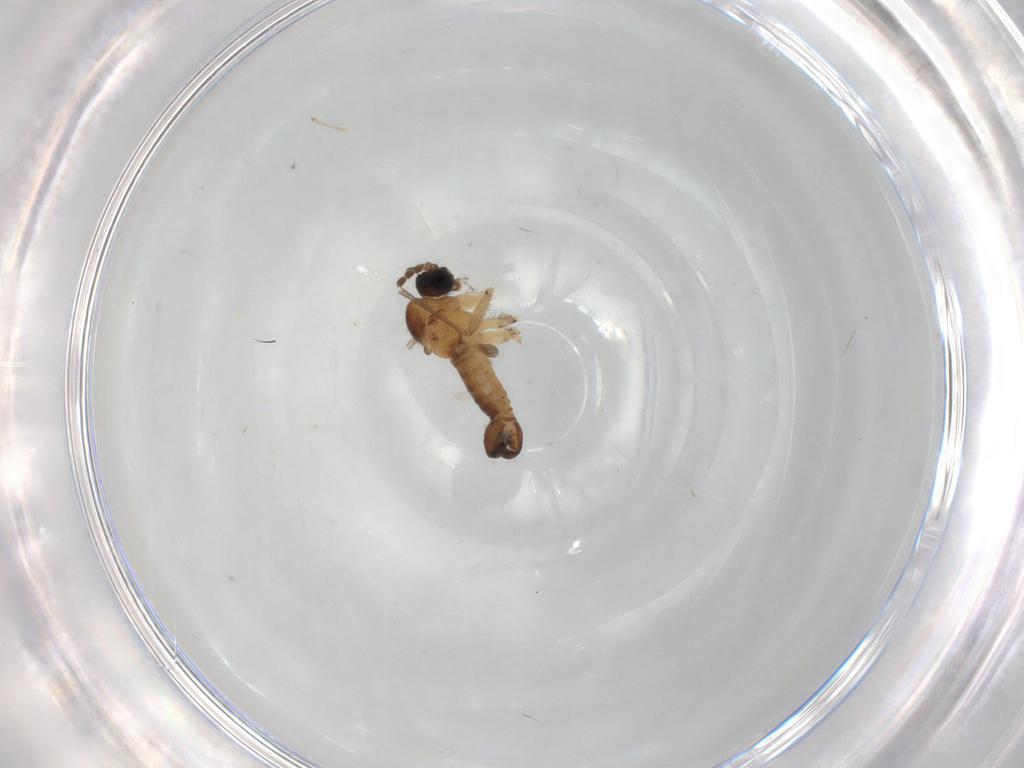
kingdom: Animalia
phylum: Arthropoda
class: Insecta
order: Diptera
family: Sciaridae
